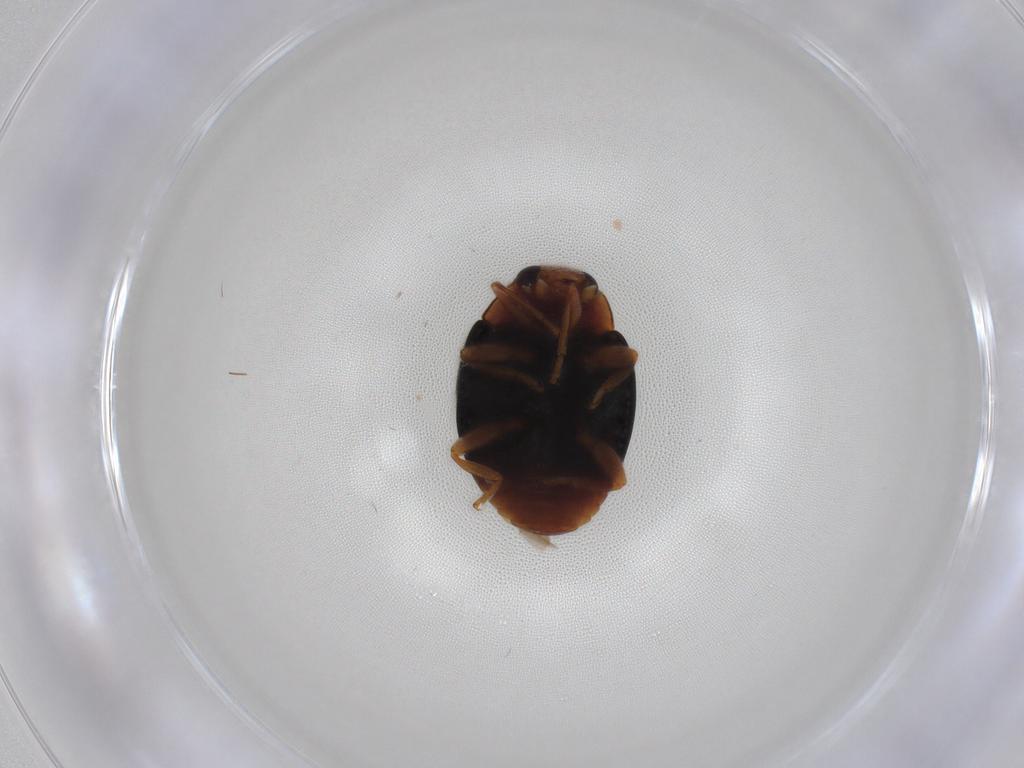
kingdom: Animalia
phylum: Arthropoda
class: Insecta
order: Coleoptera
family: Coccinellidae
